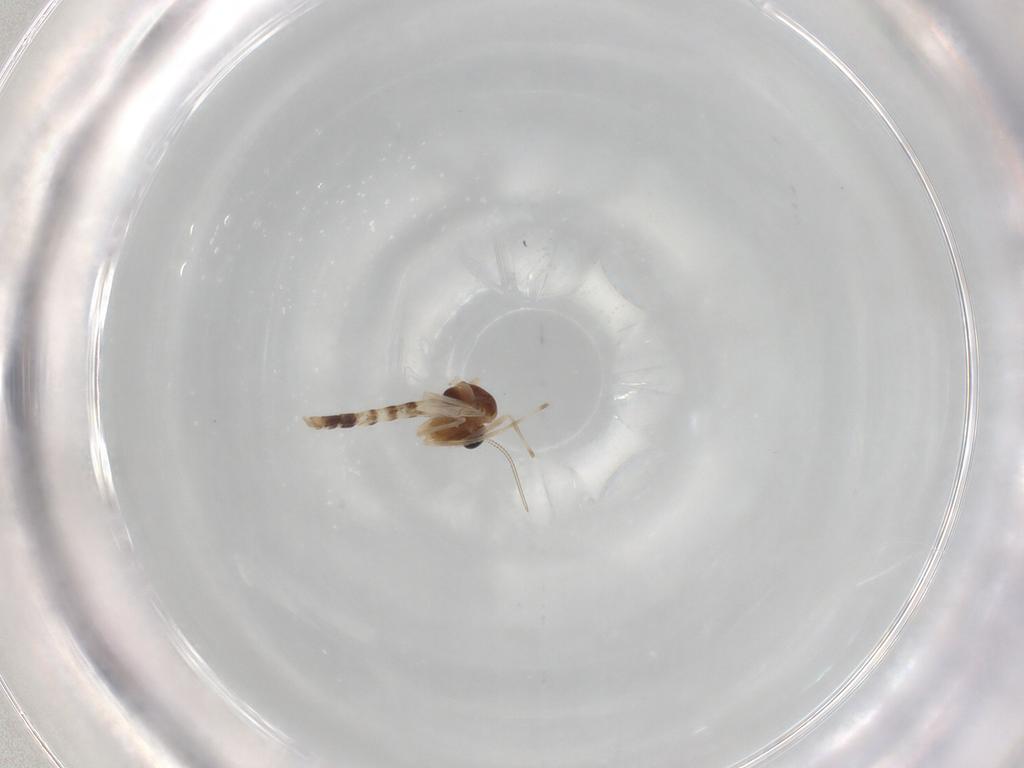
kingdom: Animalia
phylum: Arthropoda
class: Insecta
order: Diptera
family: Chironomidae
